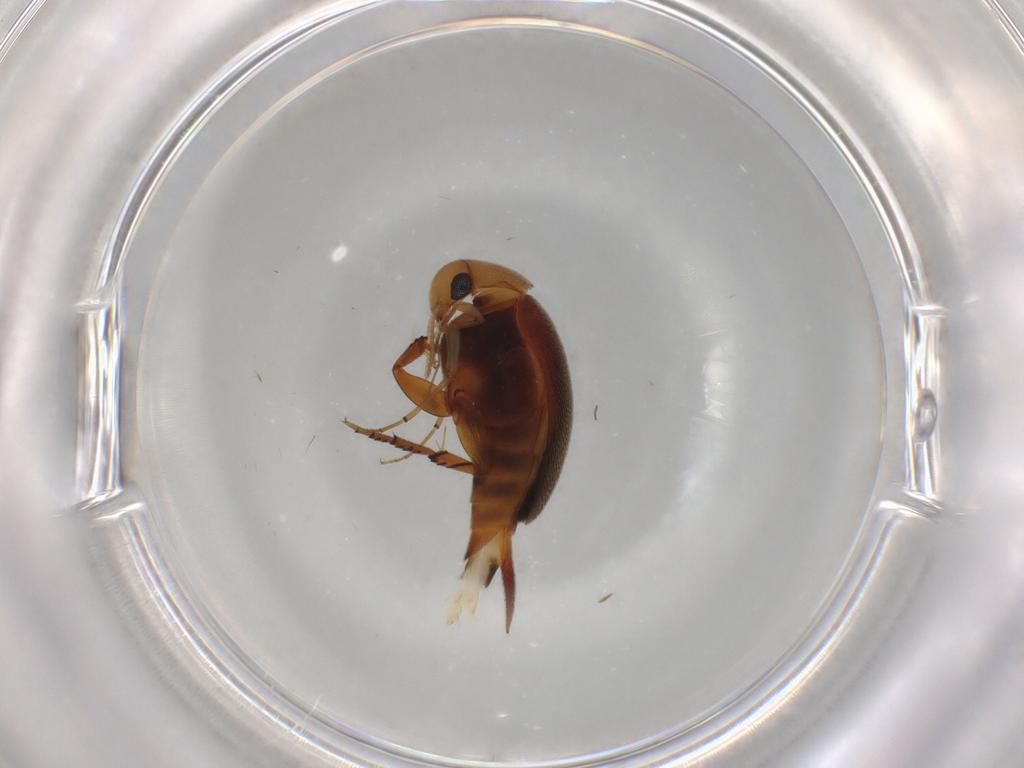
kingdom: Animalia
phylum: Arthropoda
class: Insecta
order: Coleoptera
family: Mordellidae
